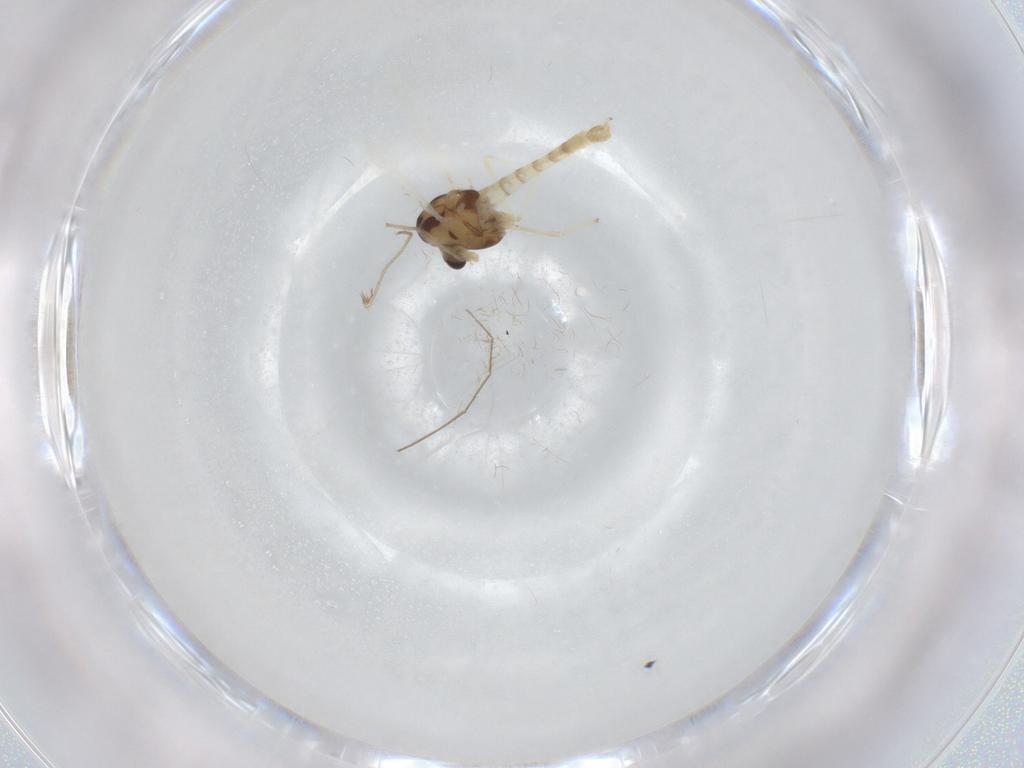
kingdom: Animalia
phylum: Arthropoda
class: Insecta
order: Diptera
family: Chironomidae
